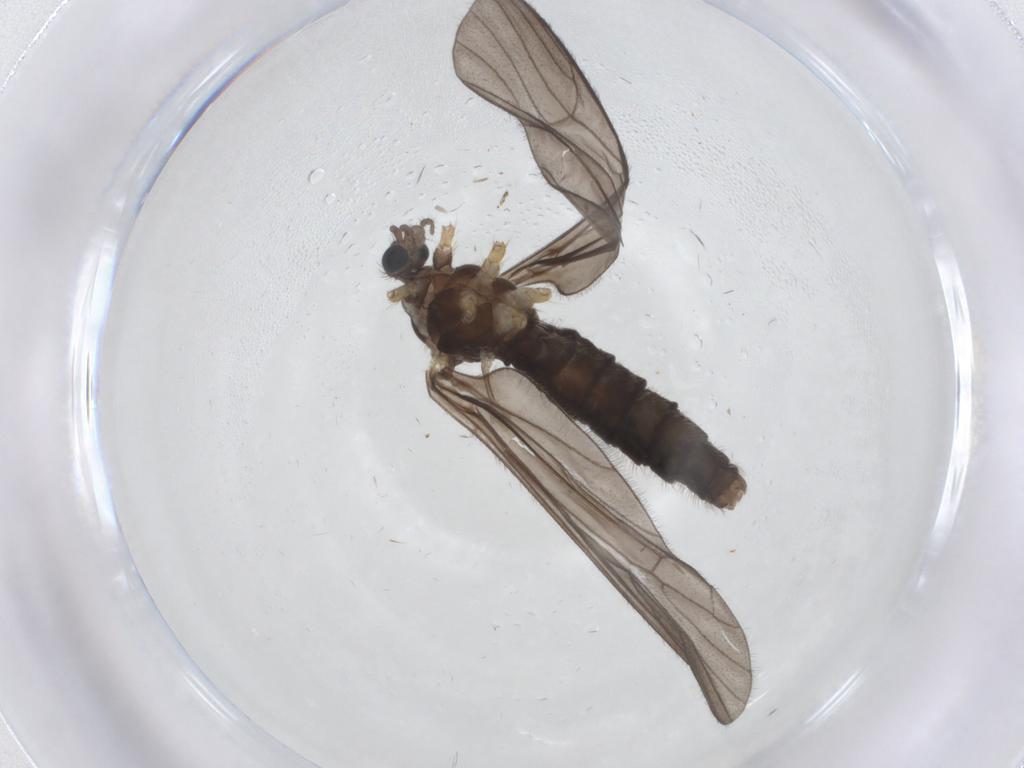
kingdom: Animalia
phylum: Arthropoda
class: Insecta
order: Diptera
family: Limoniidae
